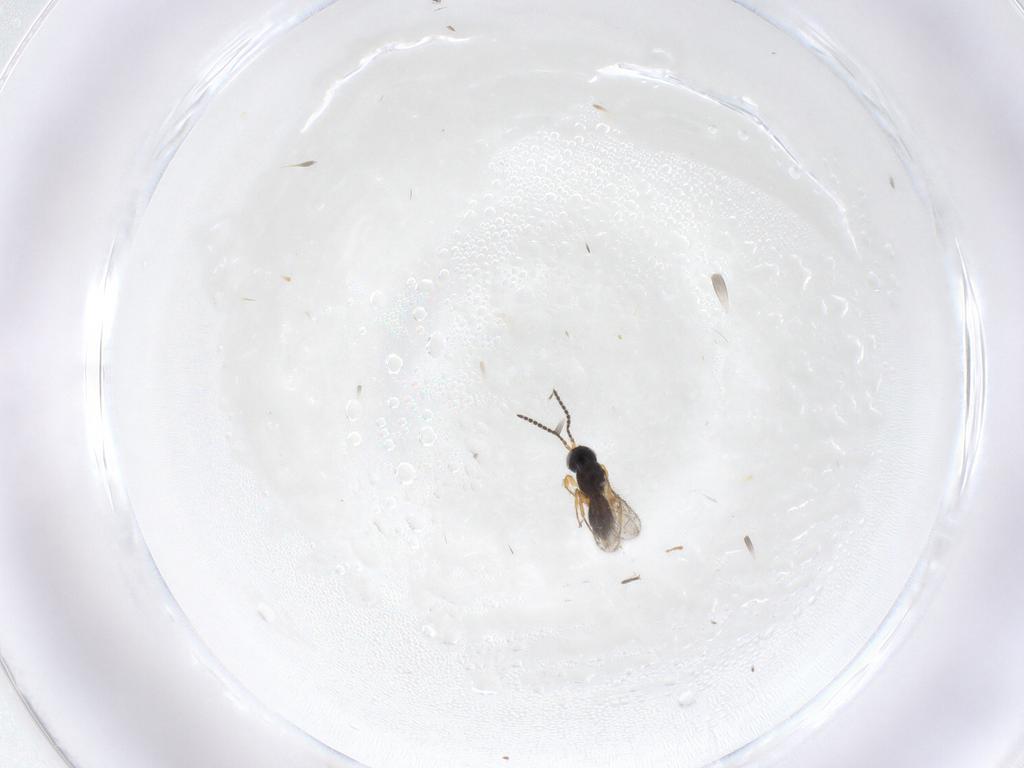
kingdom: Animalia
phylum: Arthropoda
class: Insecta
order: Hymenoptera
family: Scelionidae
